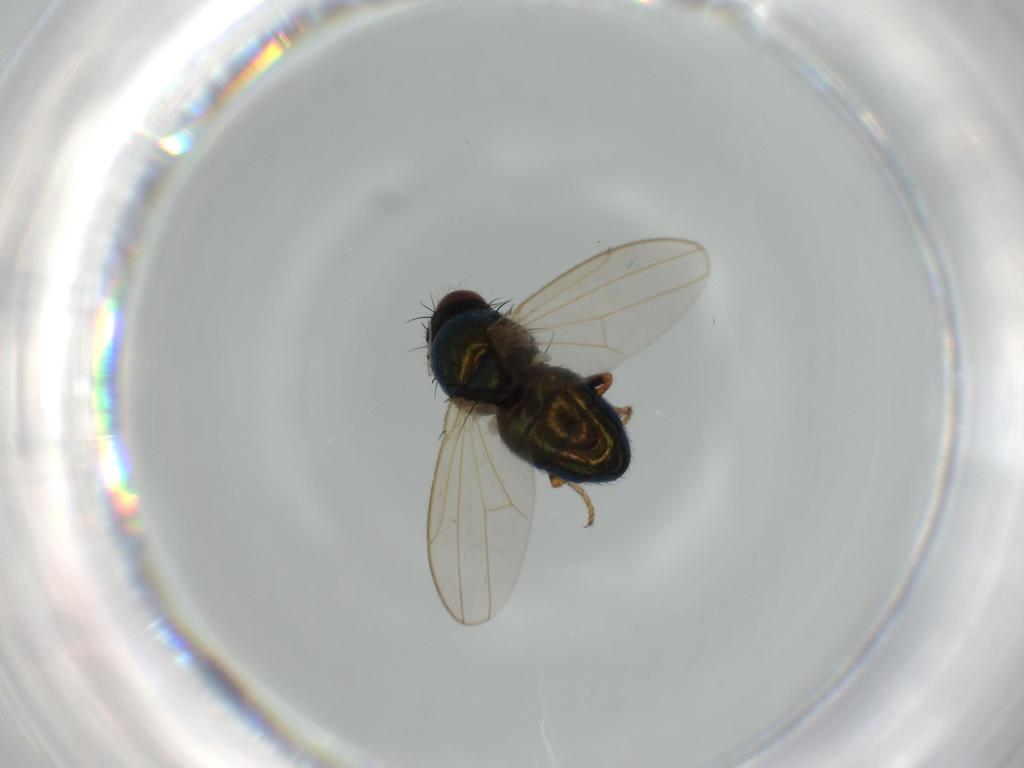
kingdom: Animalia
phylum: Arthropoda
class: Insecta
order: Diptera
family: Ephydridae
